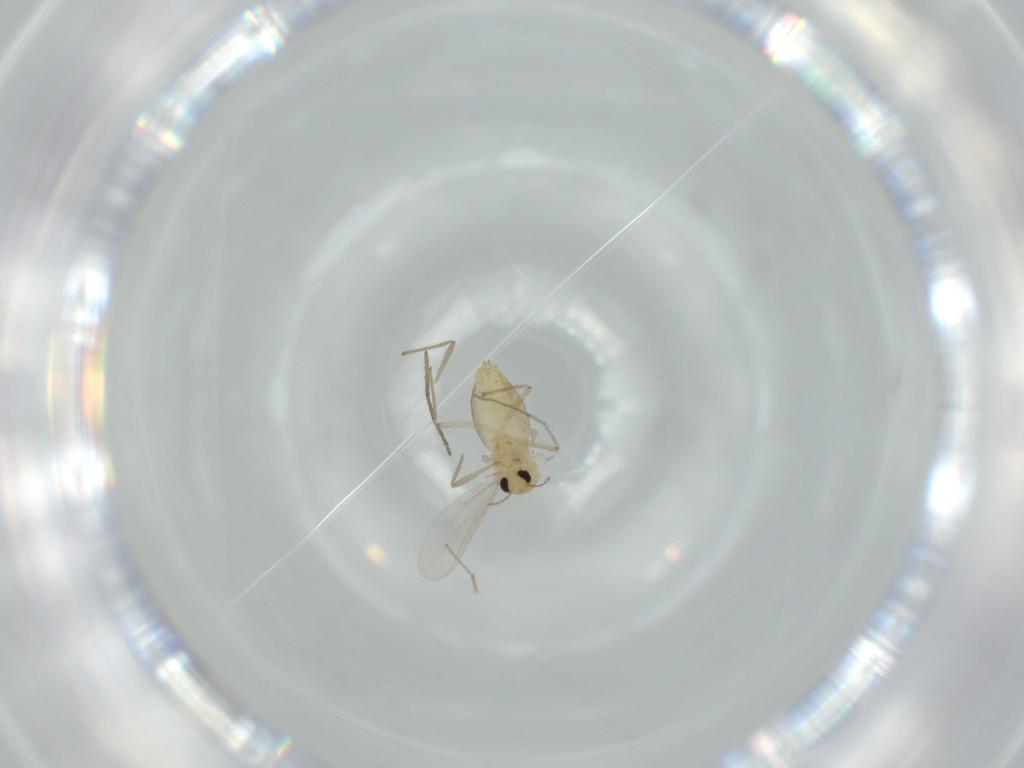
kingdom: Animalia
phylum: Arthropoda
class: Insecta
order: Diptera
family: Chironomidae
